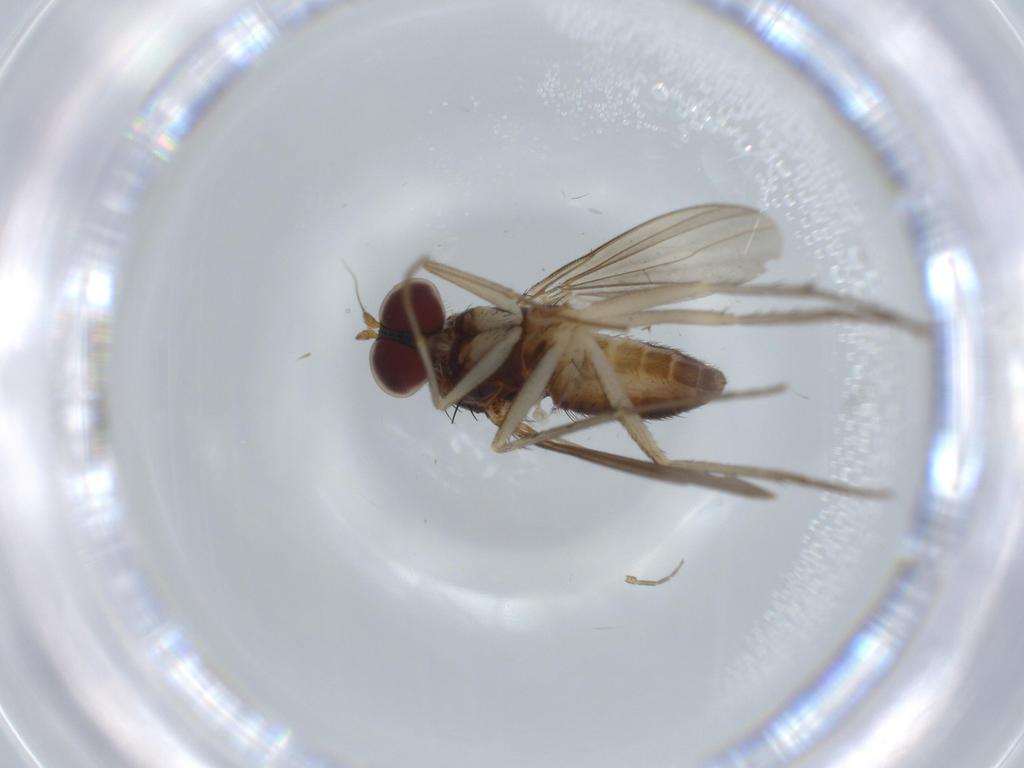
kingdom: Animalia
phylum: Arthropoda
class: Insecta
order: Diptera
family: Dolichopodidae
